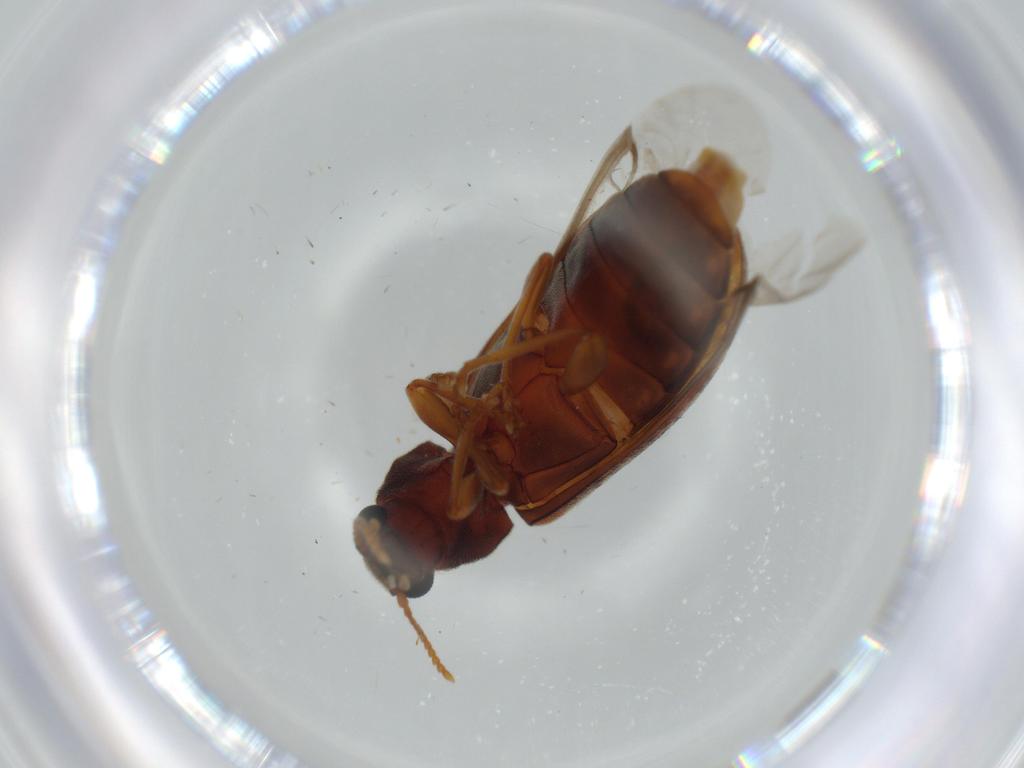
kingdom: Animalia
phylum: Arthropoda
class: Insecta
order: Coleoptera
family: Mycteridae
